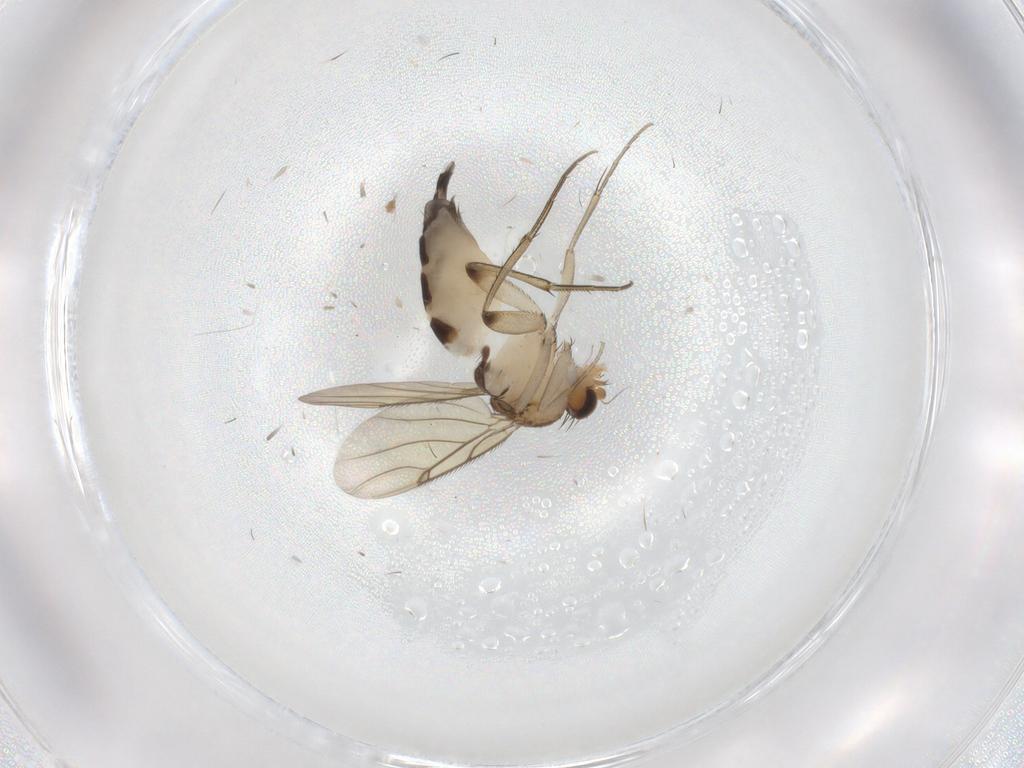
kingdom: Animalia
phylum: Arthropoda
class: Insecta
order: Diptera
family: Phoridae
